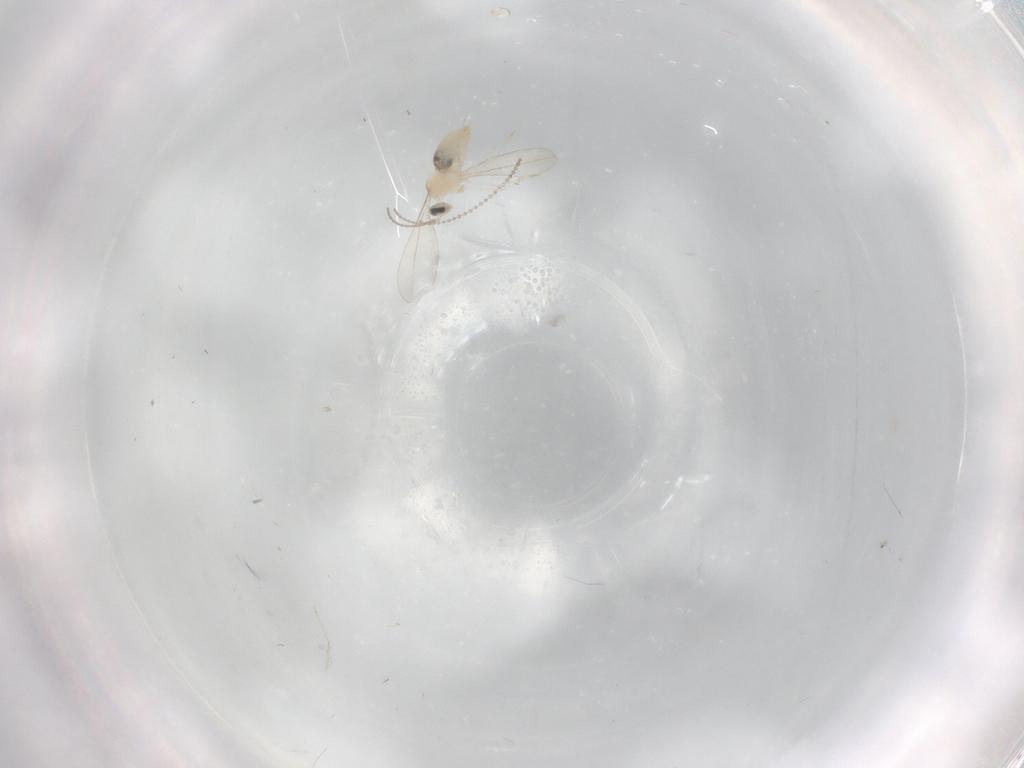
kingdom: Animalia
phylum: Arthropoda
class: Insecta
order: Diptera
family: Cecidomyiidae
